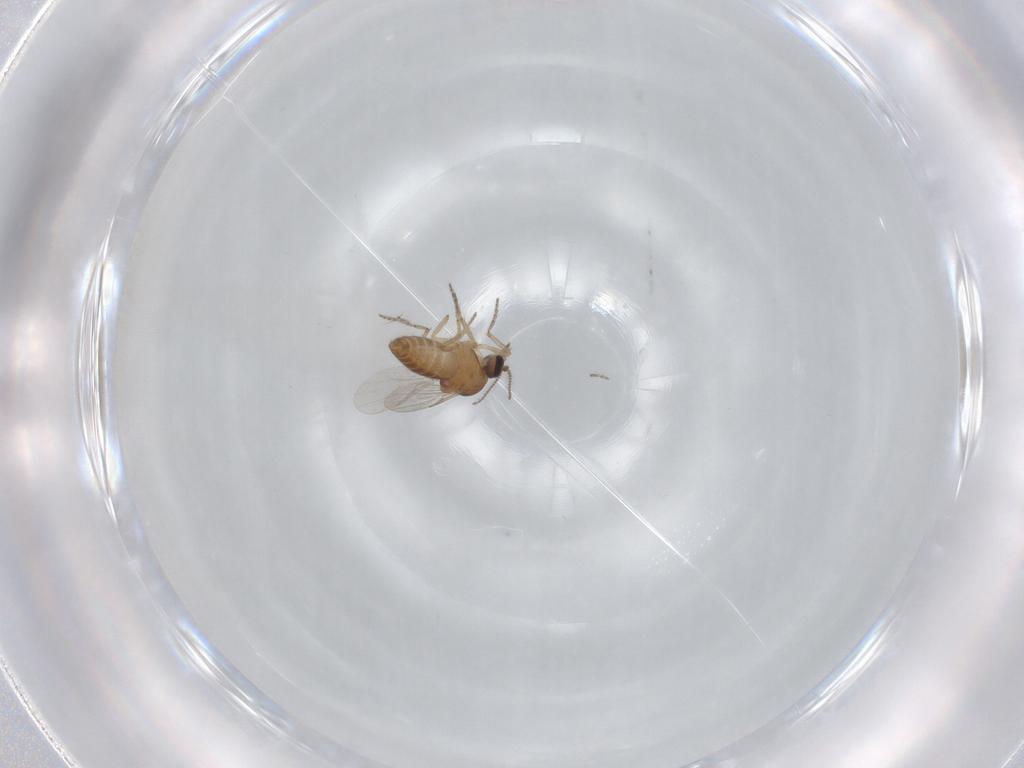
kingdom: Animalia
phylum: Arthropoda
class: Insecta
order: Diptera
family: Ceratopogonidae
